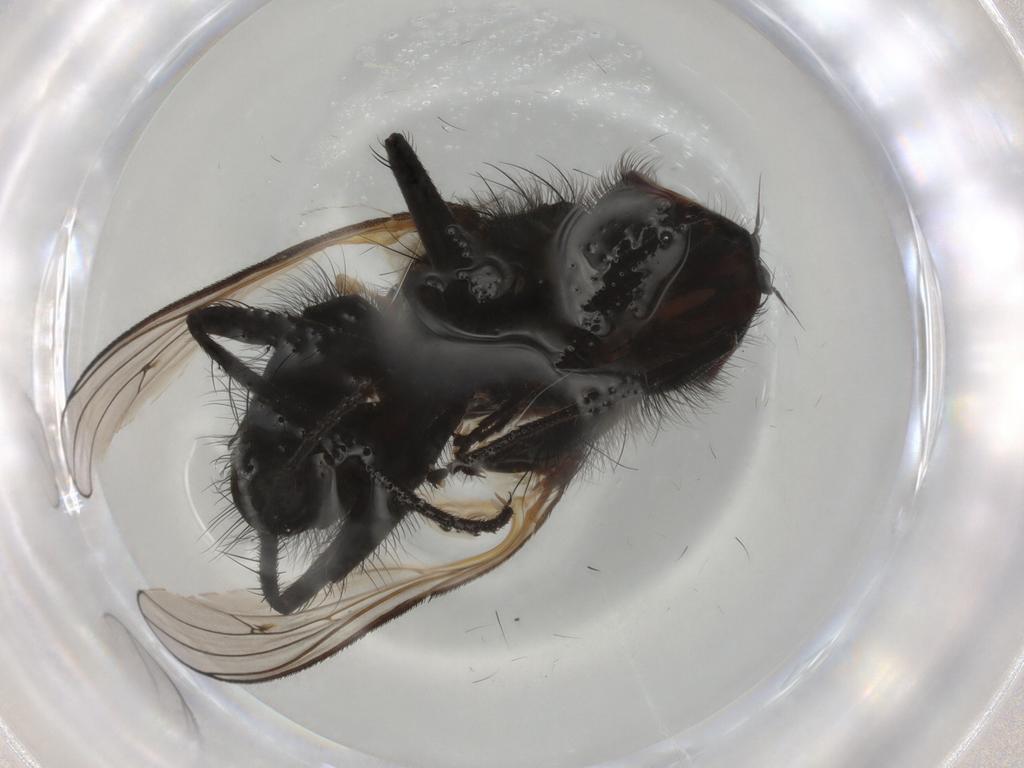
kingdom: Animalia
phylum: Arthropoda
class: Insecta
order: Diptera
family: Anthomyiidae
